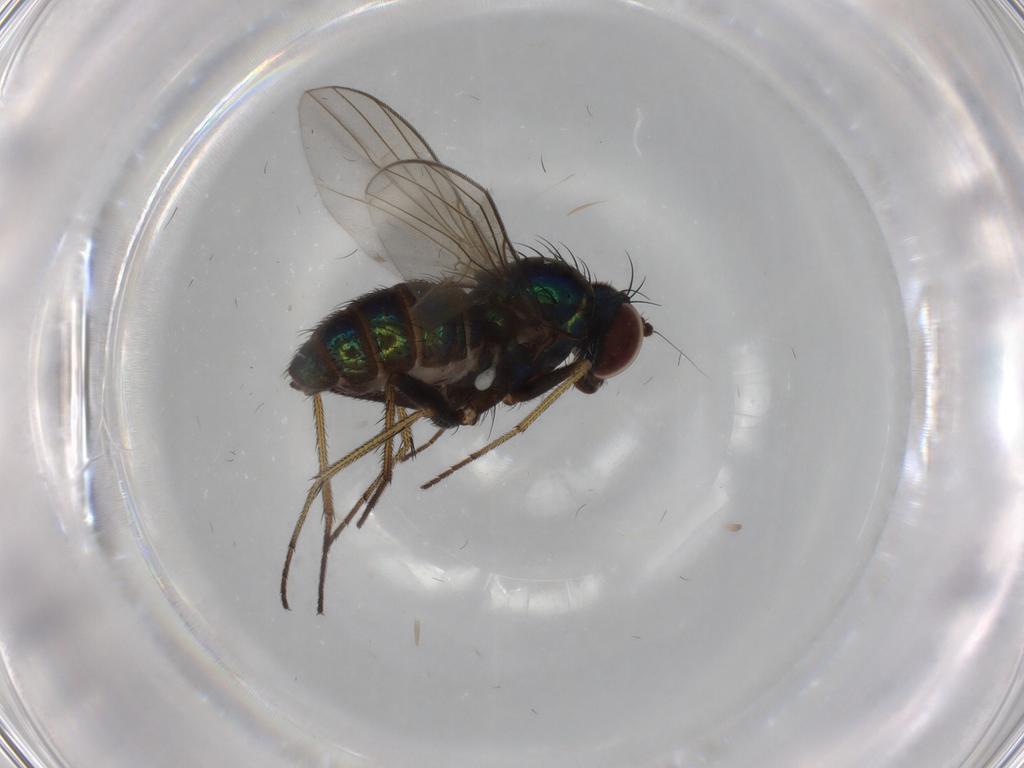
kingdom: Animalia
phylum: Arthropoda
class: Insecta
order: Diptera
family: Dolichopodidae
